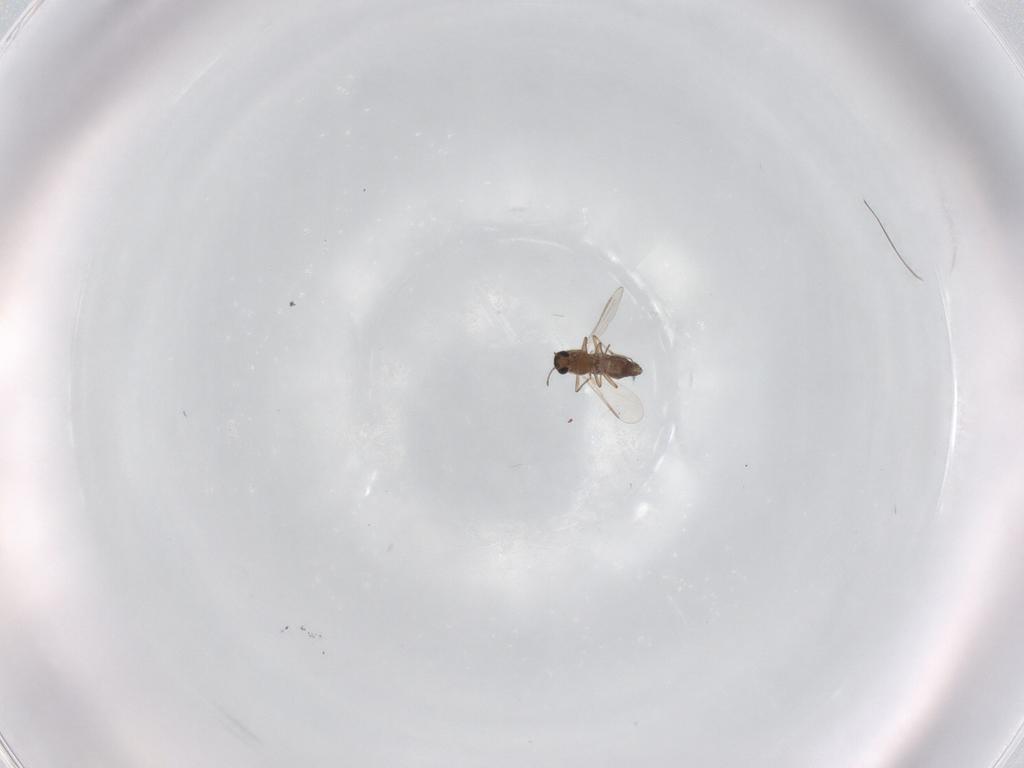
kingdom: Animalia
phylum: Arthropoda
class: Insecta
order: Diptera
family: Chironomidae
